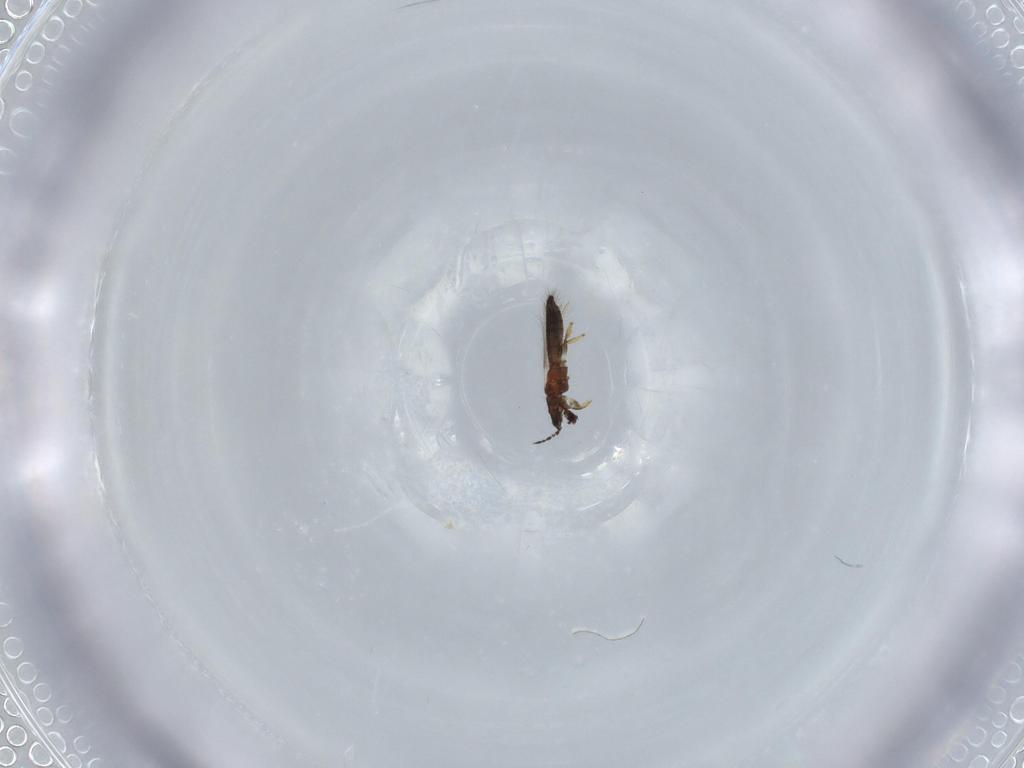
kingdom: Animalia
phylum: Arthropoda
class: Insecta
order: Thysanoptera
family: Thripidae
